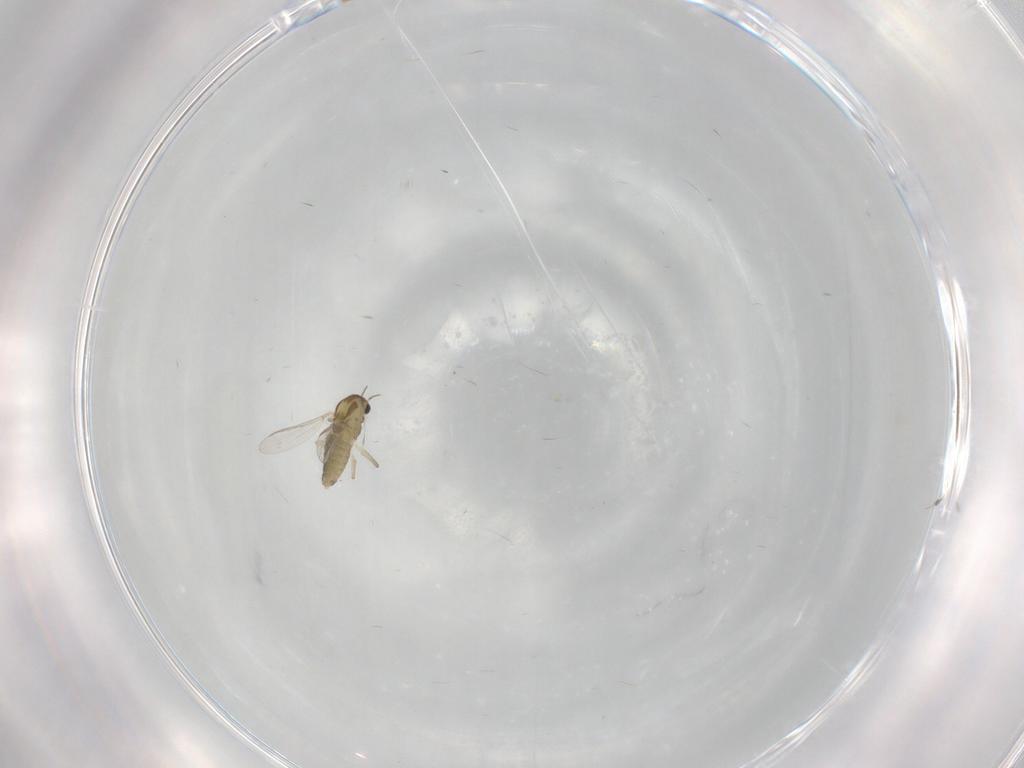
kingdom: Animalia
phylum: Arthropoda
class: Insecta
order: Diptera
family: Chironomidae
